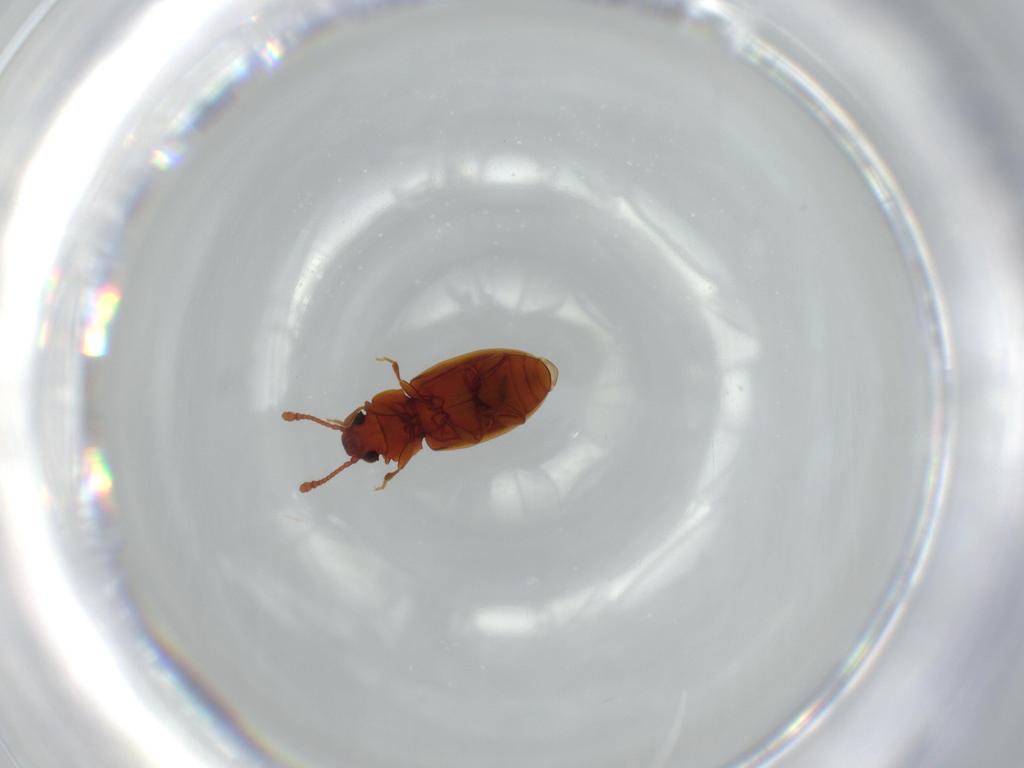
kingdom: Animalia
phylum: Arthropoda
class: Insecta
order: Coleoptera
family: Silvanidae
